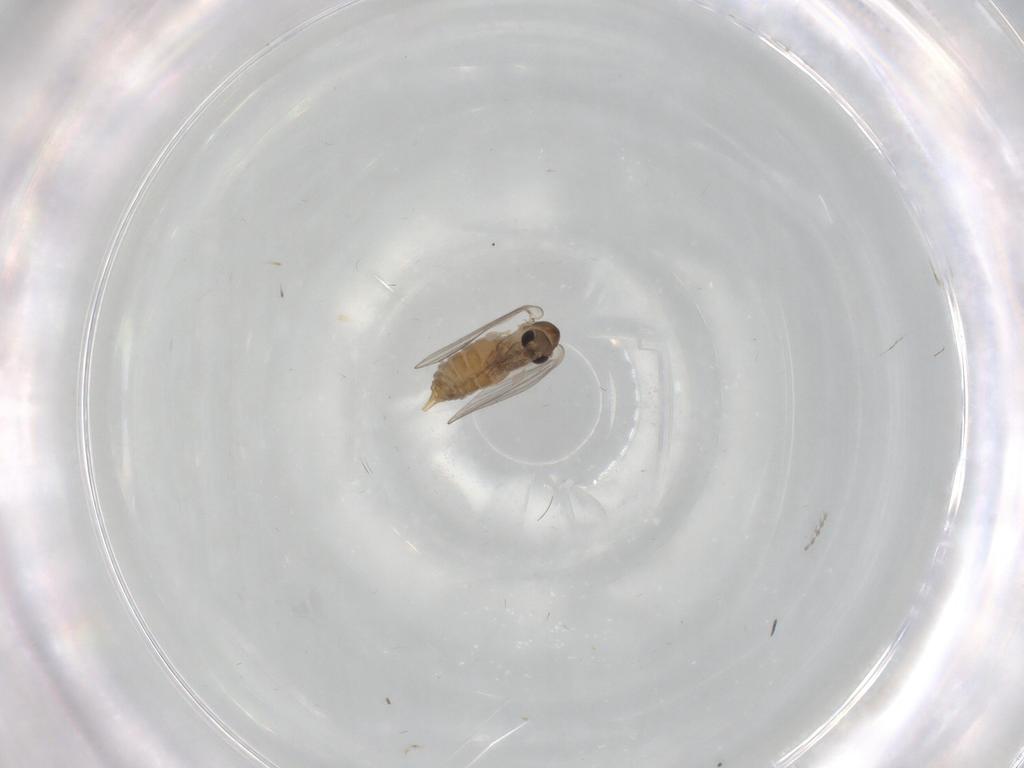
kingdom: Animalia
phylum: Arthropoda
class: Insecta
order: Diptera
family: Chironomidae
